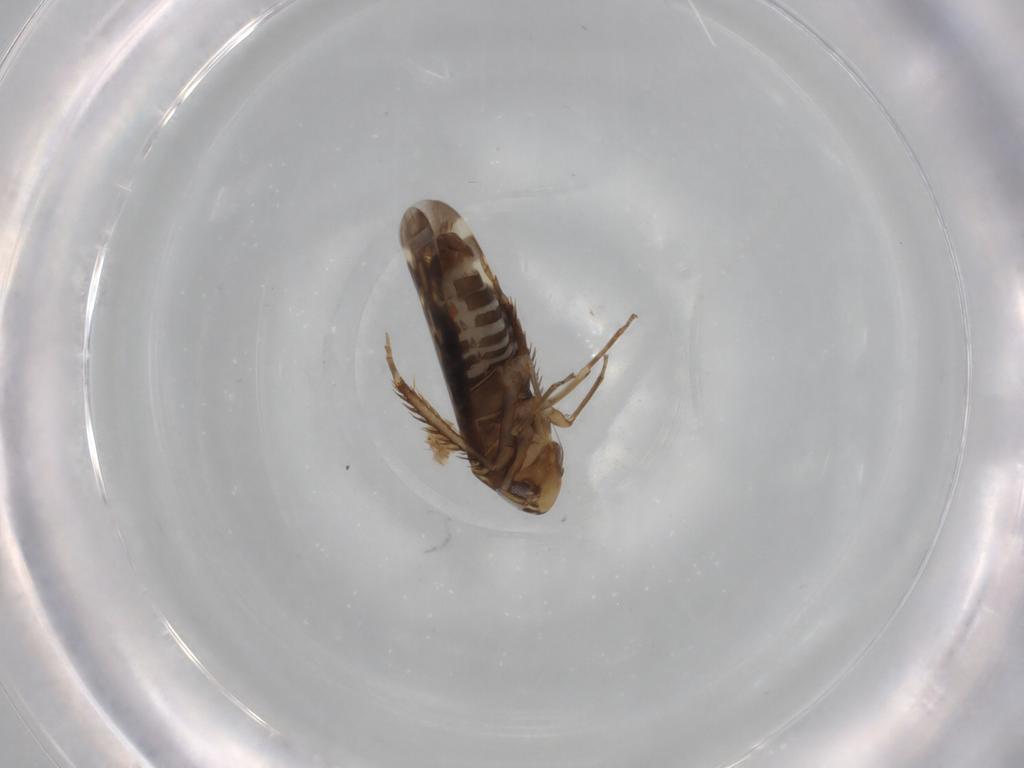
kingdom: Animalia
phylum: Arthropoda
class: Insecta
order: Hemiptera
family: Cicadellidae
